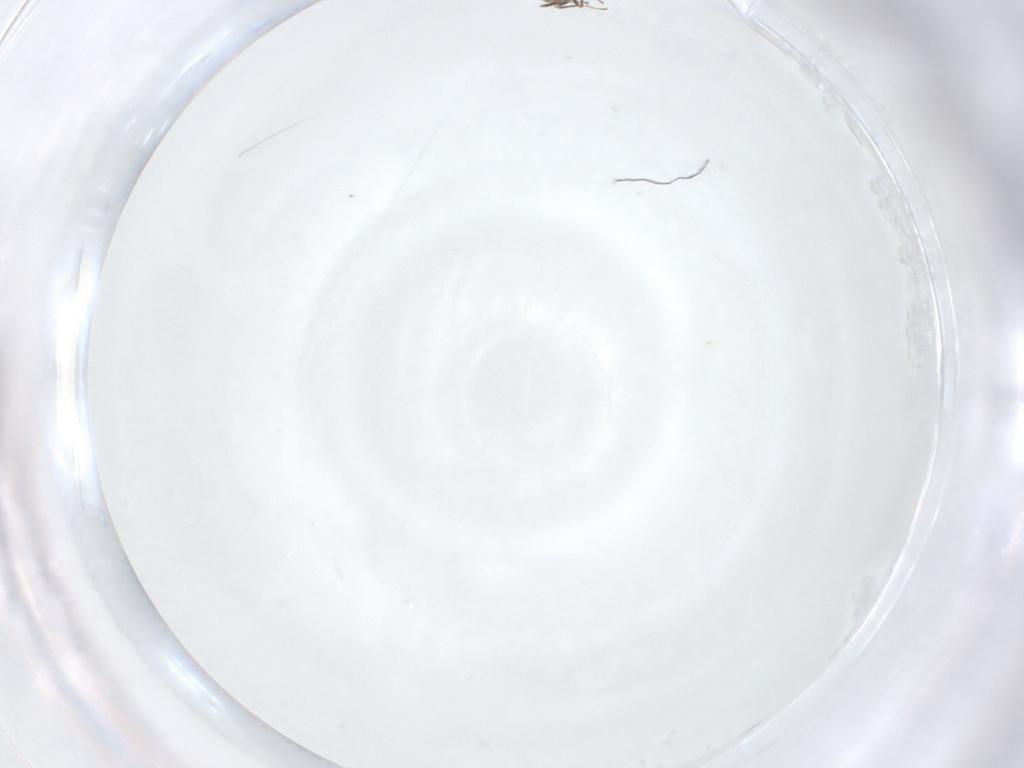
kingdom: Animalia
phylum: Arthropoda
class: Insecta
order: Hymenoptera
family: Mymaridae
